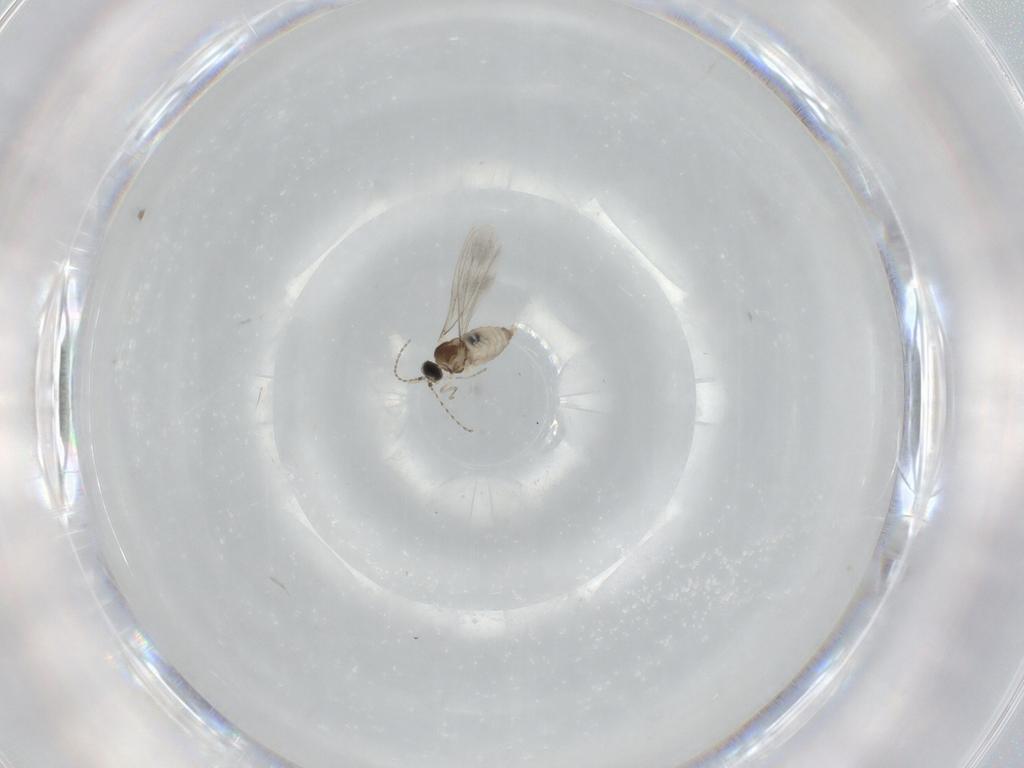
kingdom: Animalia
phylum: Arthropoda
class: Insecta
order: Diptera
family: Cecidomyiidae
